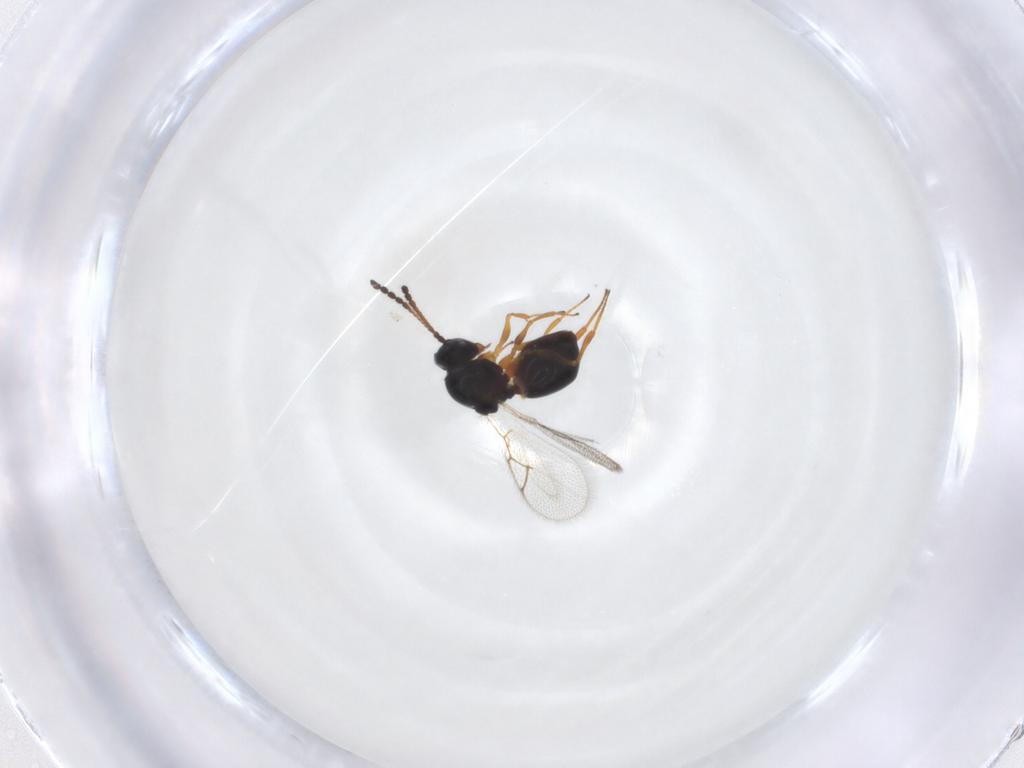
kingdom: Animalia
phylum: Arthropoda
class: Insecta
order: Hymenoptera
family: Figitidae
